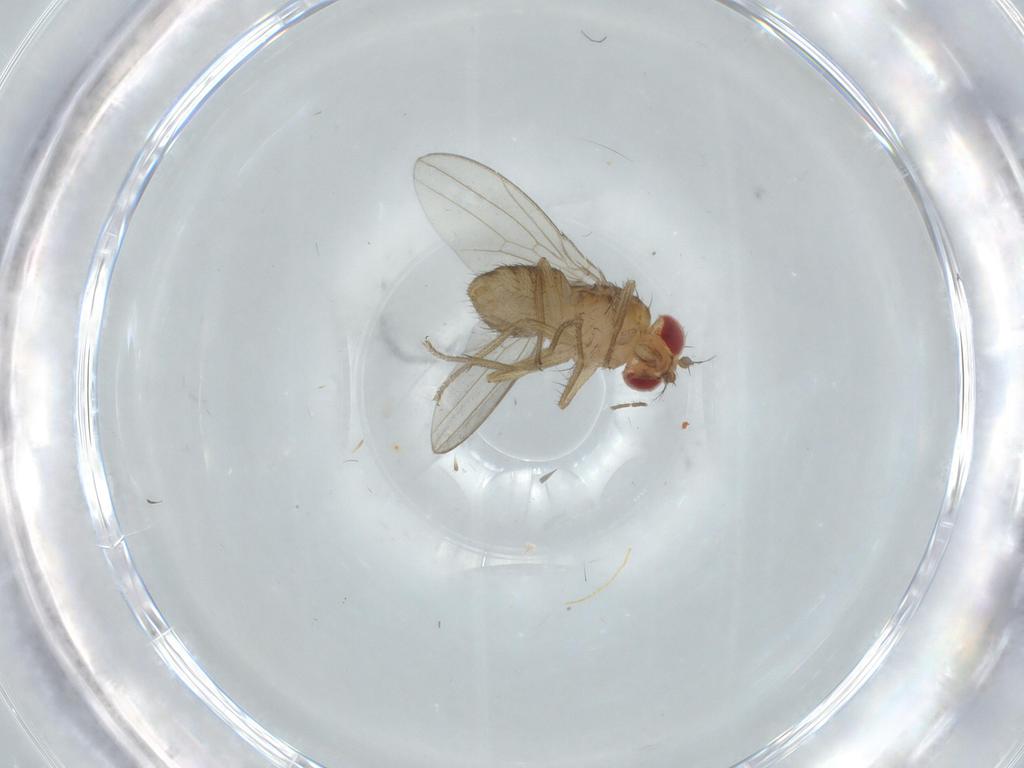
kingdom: Animalia
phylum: Arthropoda
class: Insecta
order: Diptera
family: Drosophilidae
